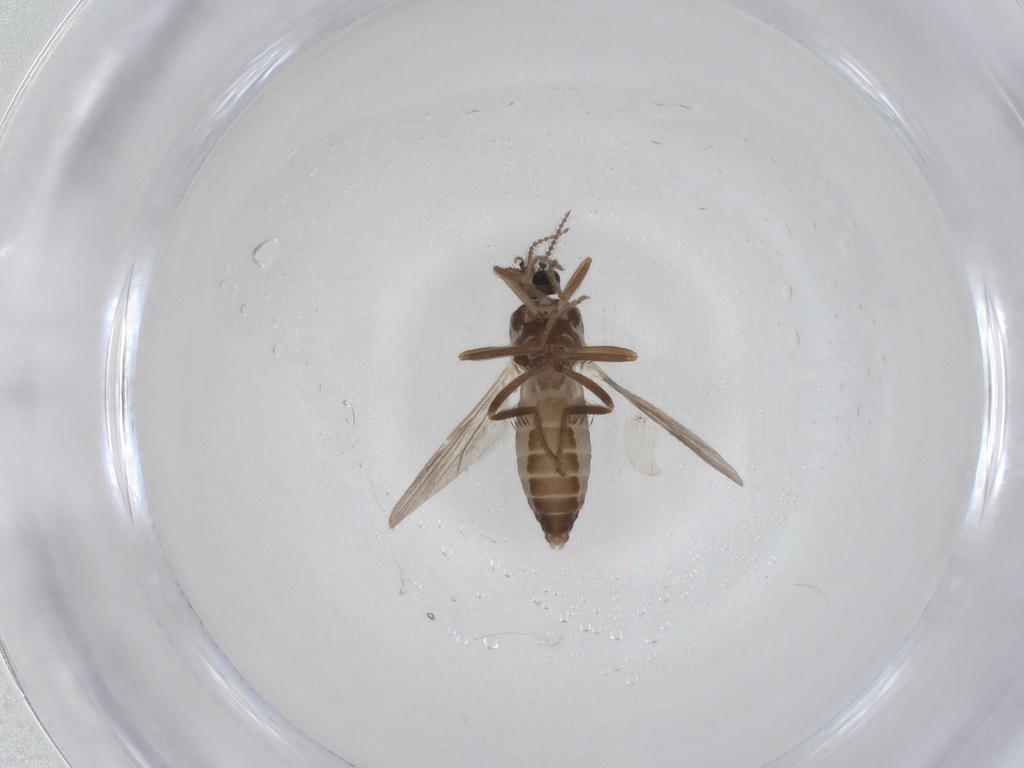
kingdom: Animalia
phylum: Arthropoda
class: Insecta
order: Diptera
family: Ceratopogonidae
